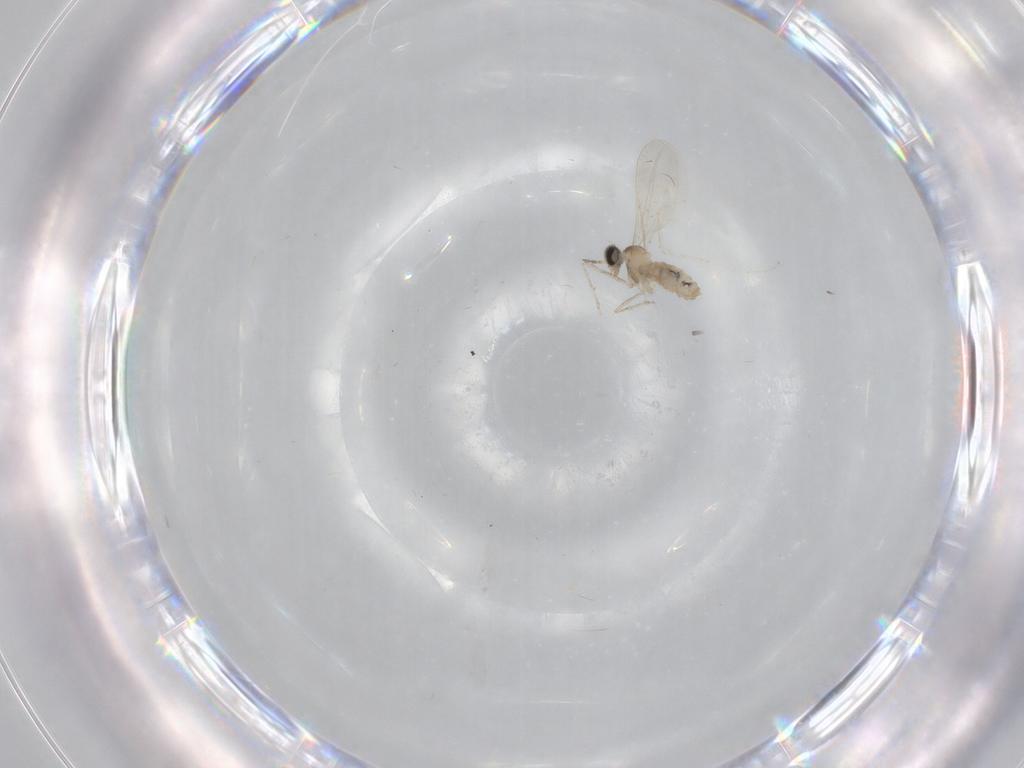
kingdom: Animalia
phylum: Arthropoda
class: Insecta
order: Diptera
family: Cecidomyiidae
